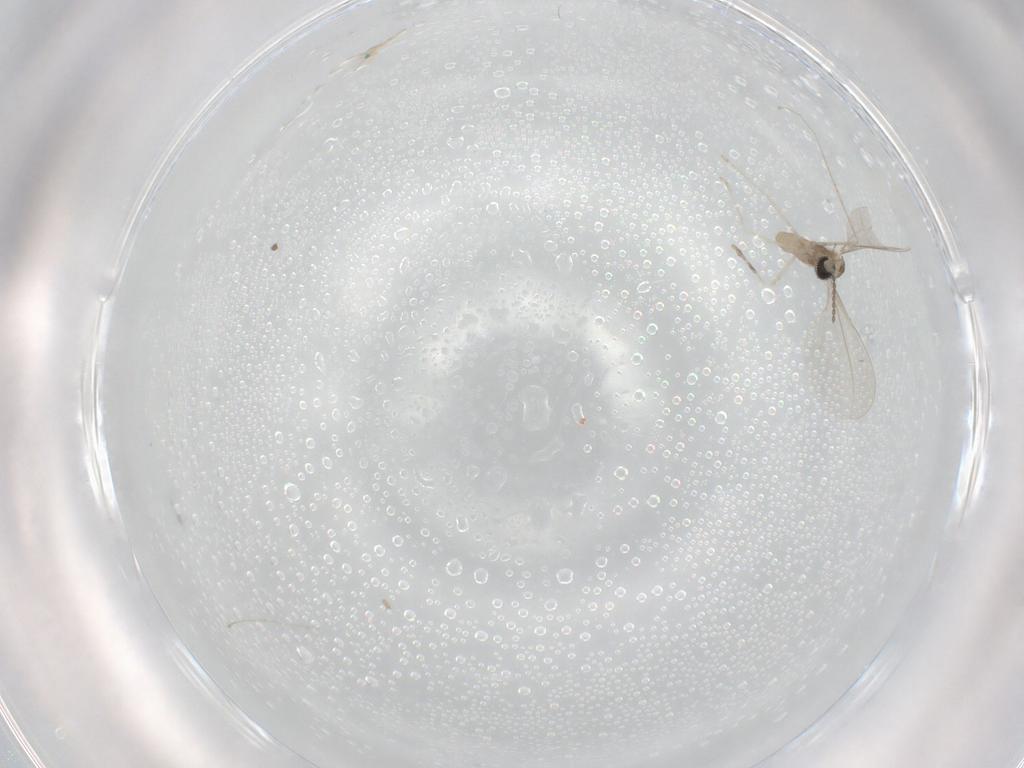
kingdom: Animalia
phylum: Arthropoda
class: Insecta
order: Diptera
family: Cecidomyiidae
